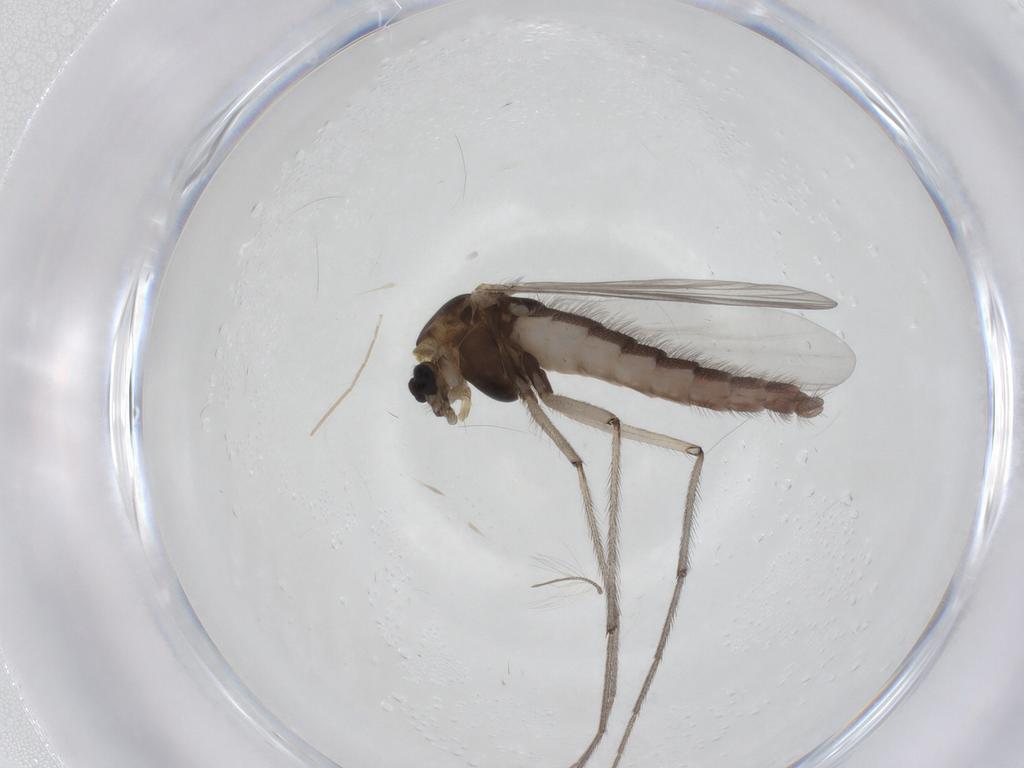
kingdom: Animalia
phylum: Arthropoda
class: Insecta
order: Diptera
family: Chironomidae
